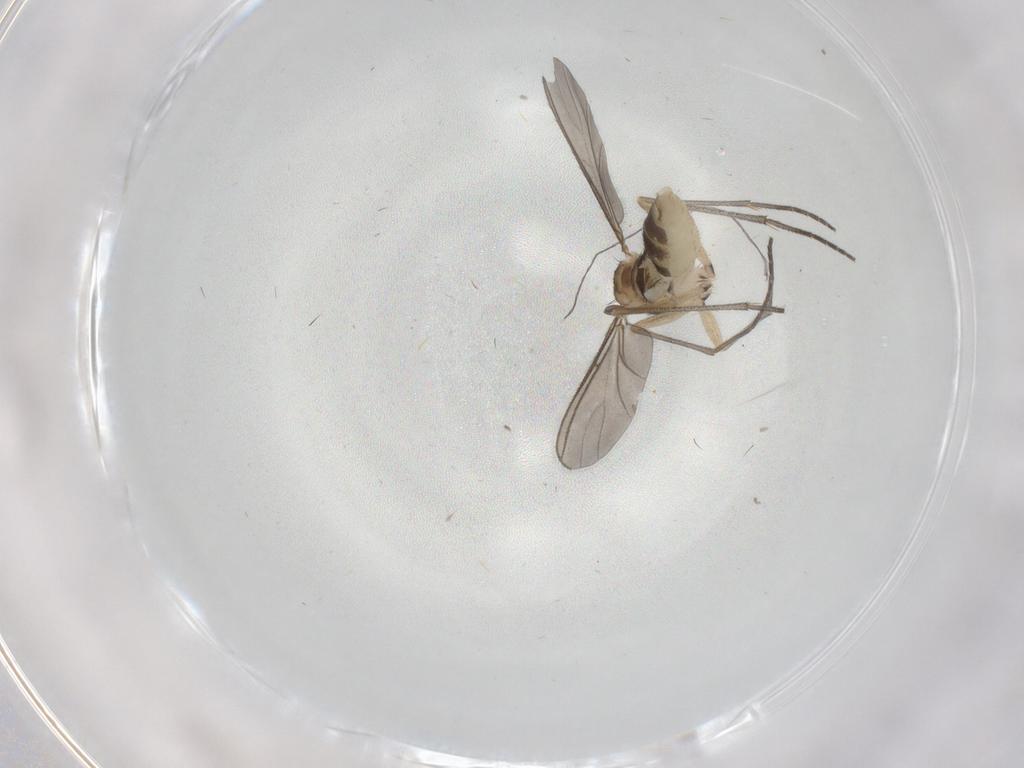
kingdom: Animalia
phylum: Arthropoda
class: Insecta
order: Diptera
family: Sciaridae
